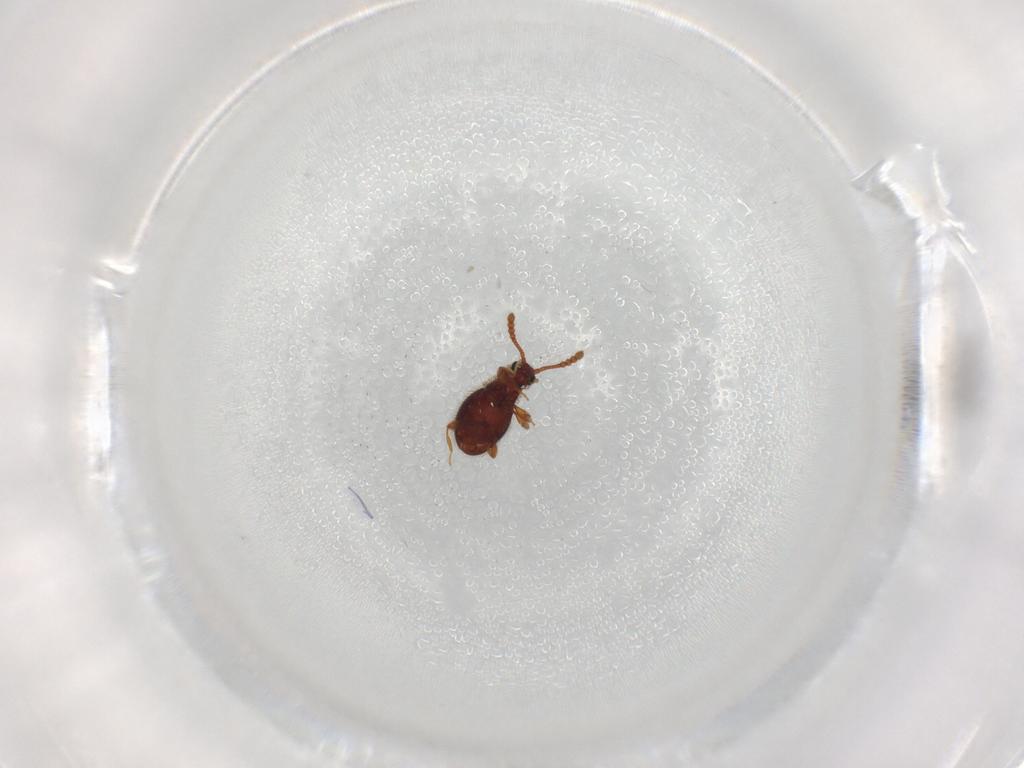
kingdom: Animalia
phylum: Arthropoda
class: Insecta
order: Coleoptera
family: Staphylinidae
